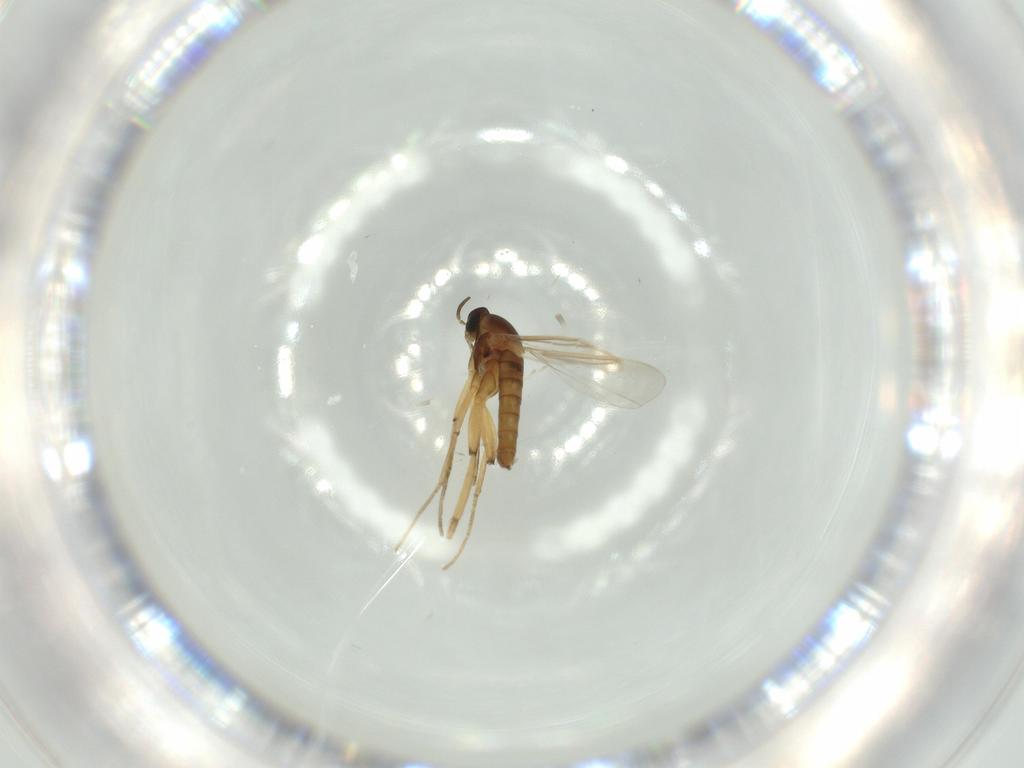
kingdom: Animalia
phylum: Arthropoda
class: Insecta
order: Diptera
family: Cecidomyiidae
